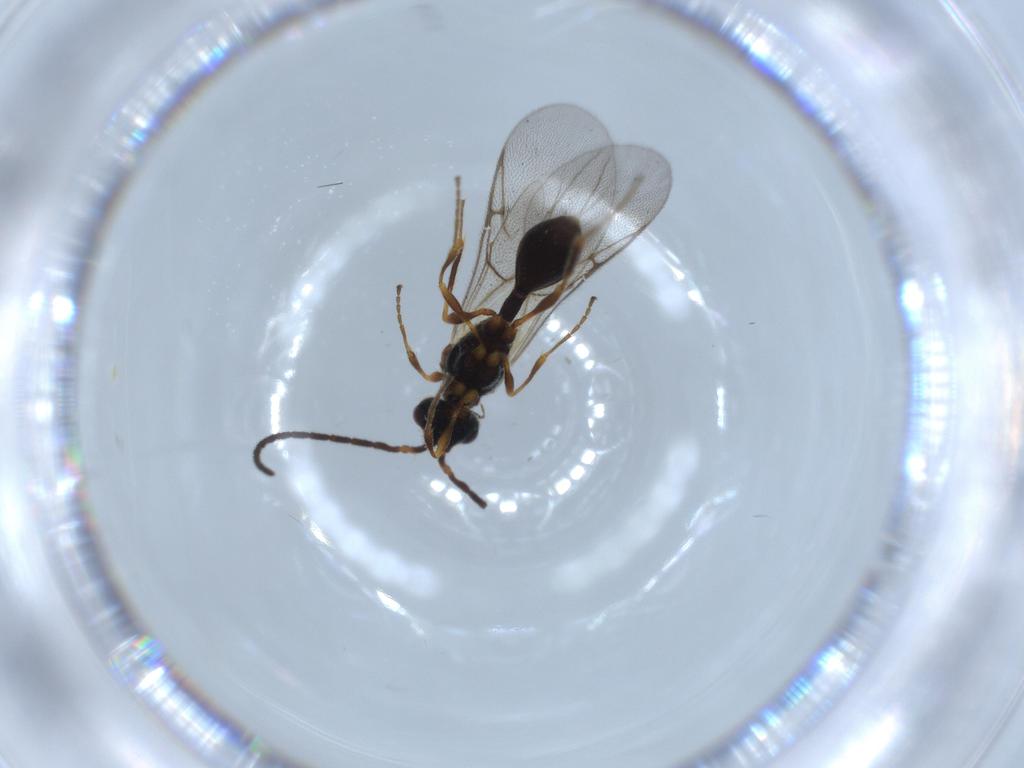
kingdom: Animalia
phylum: Arthropoda
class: Insecta
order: Hymenoptera
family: Diapriidae
